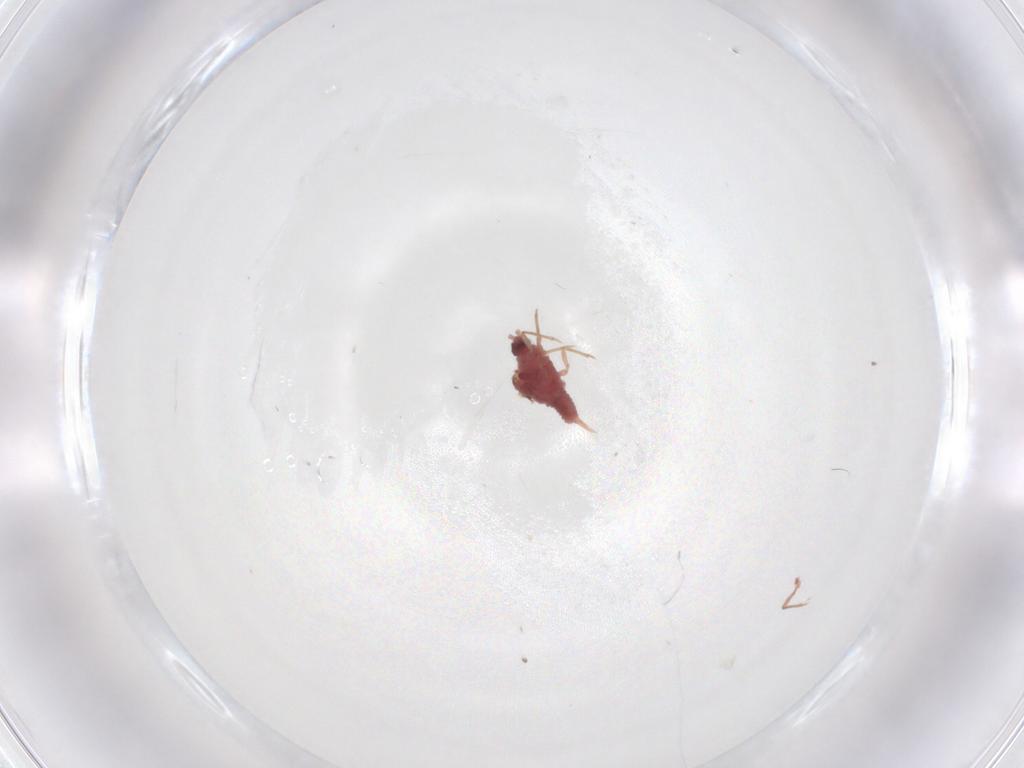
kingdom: Animalia
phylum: Arthropoda
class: Insecta
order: Hemiptera
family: Coccoidea_incertae_sedis
